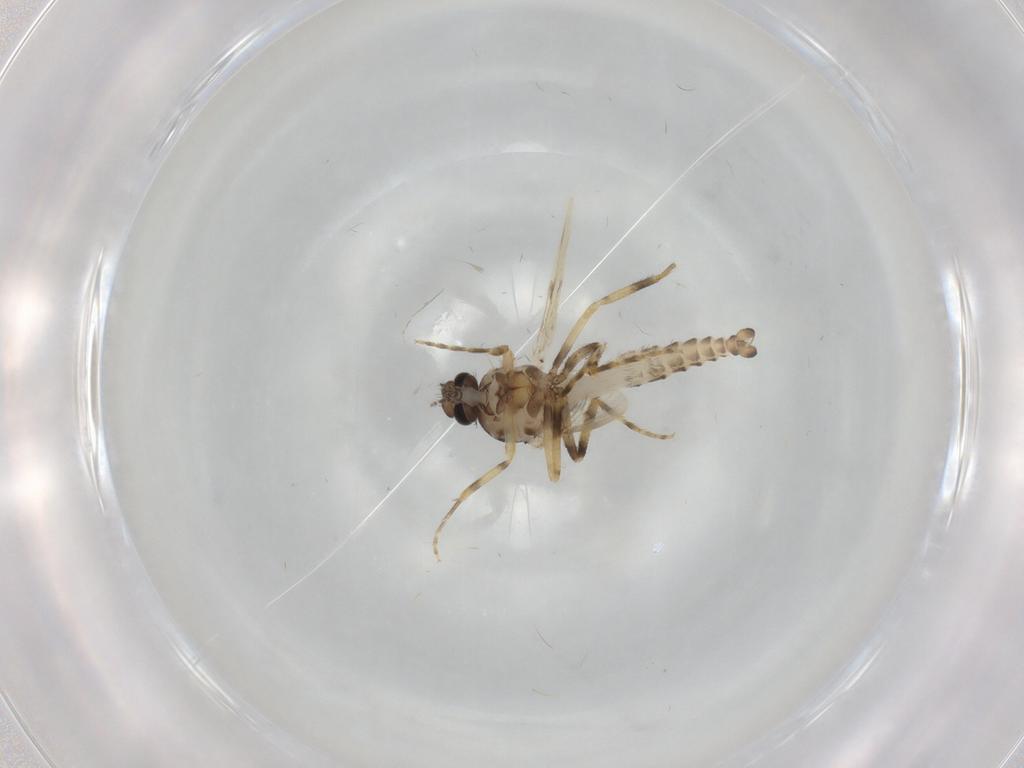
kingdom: Animalia
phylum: Arthropoda
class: Insecta
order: Diptera
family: Ceratopogonidae
